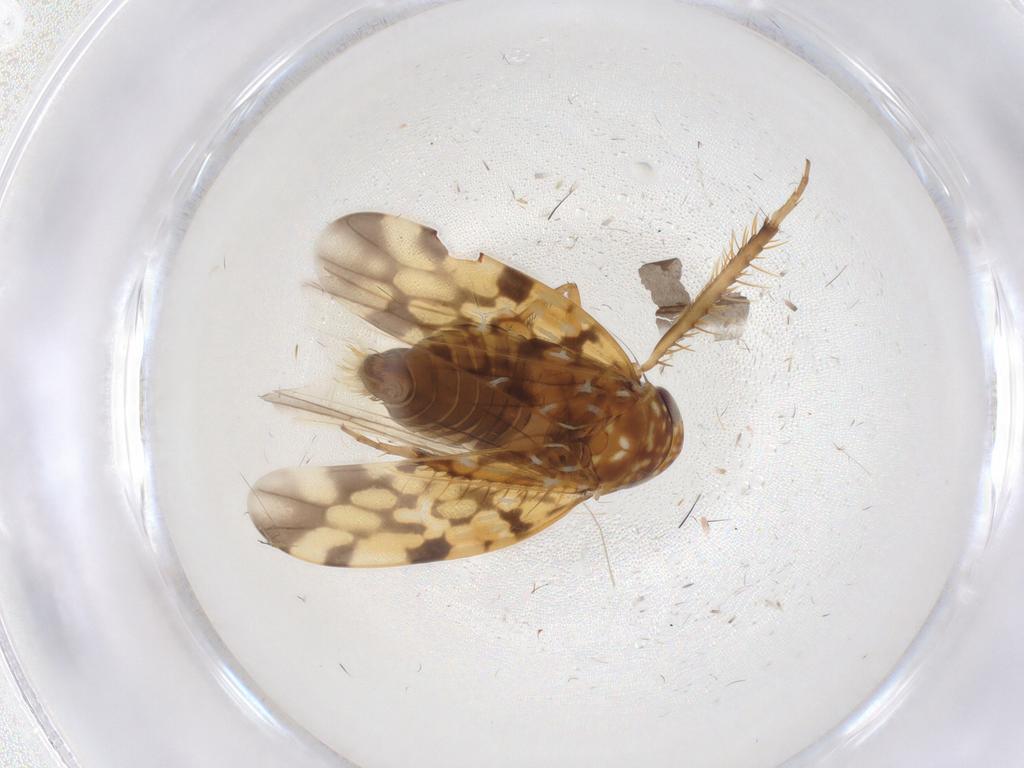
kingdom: Animalia
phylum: Arthropoda
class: Insecta
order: Hemiptera
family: Cicadellidae
